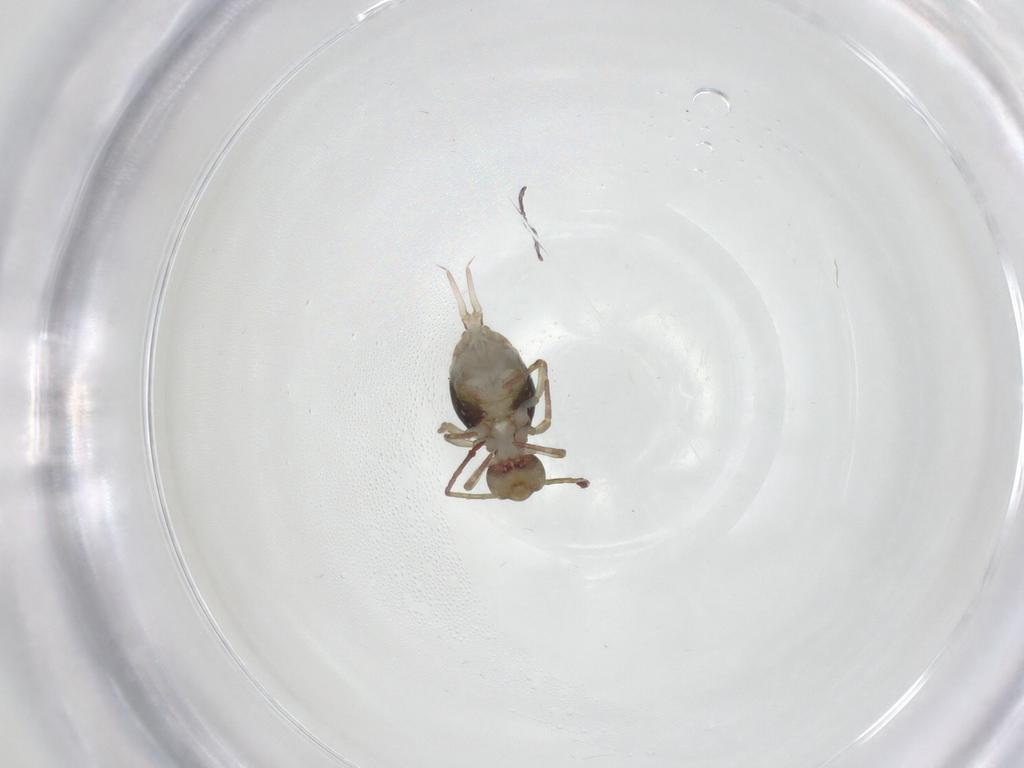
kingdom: Animalia
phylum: Arthropoda
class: Collembola
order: Symphypleona
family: Dicyrtomidae
